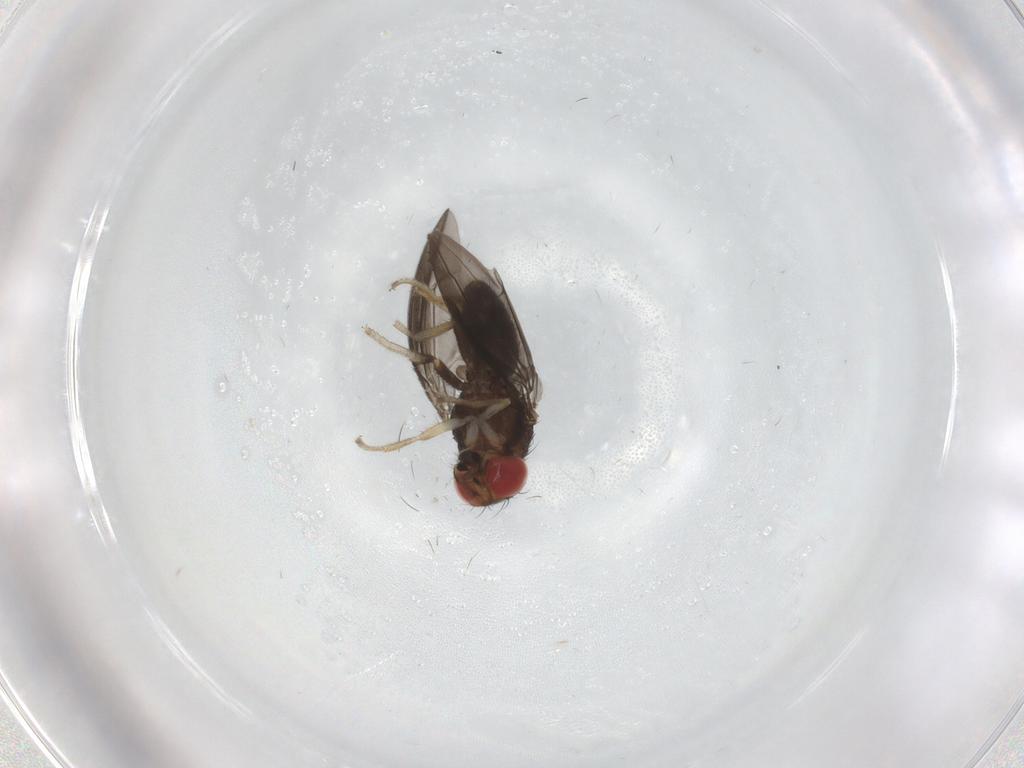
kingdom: Animalia
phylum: Arthropoda
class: Insecta
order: Diptera
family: Chironomidae
